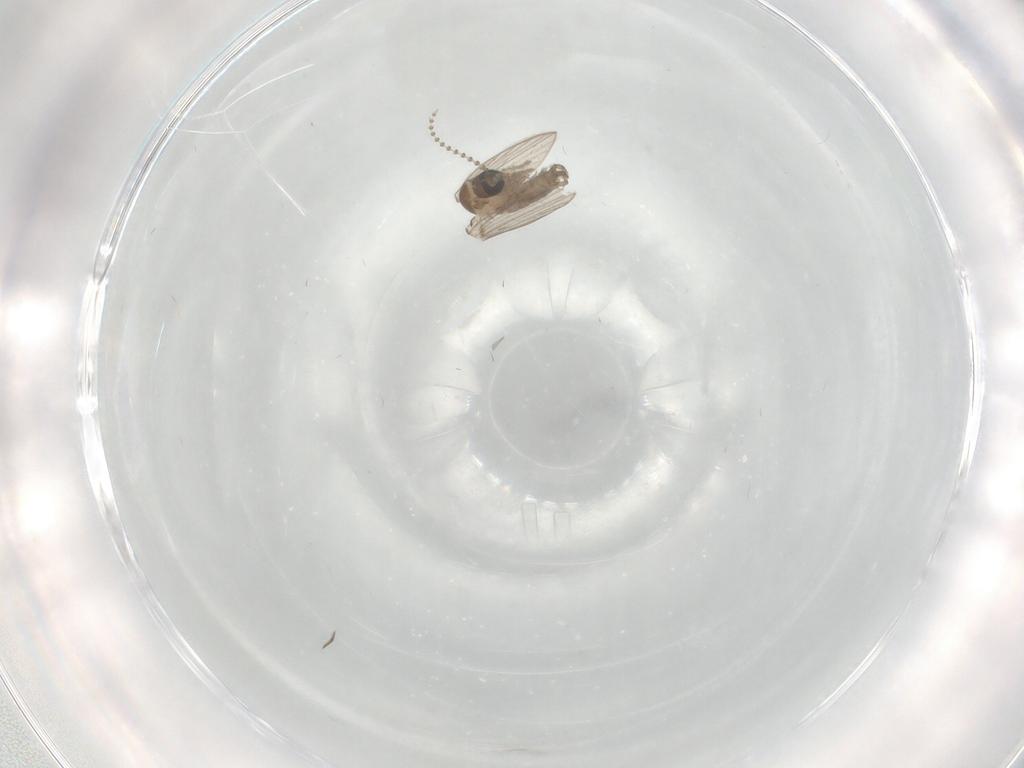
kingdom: Animalia
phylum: Arthropoda
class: Insecta
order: Diptera
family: Psychodidae
